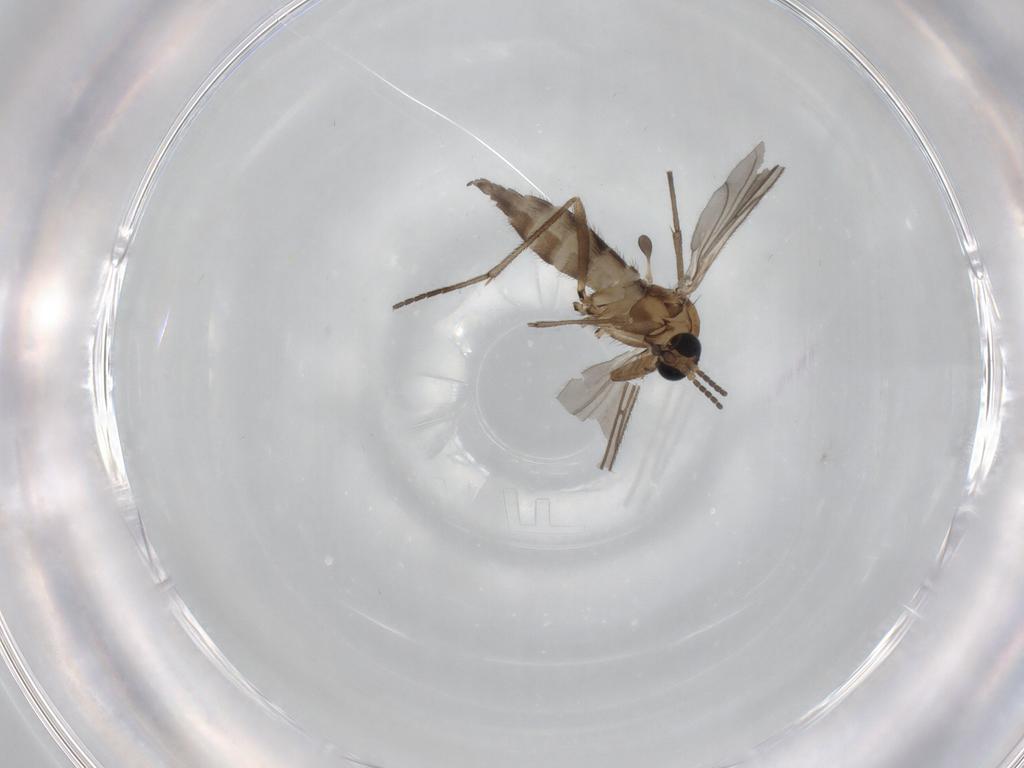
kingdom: Animalia
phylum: Arthropoda
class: Insecta
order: Diptera
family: Sciaridae
